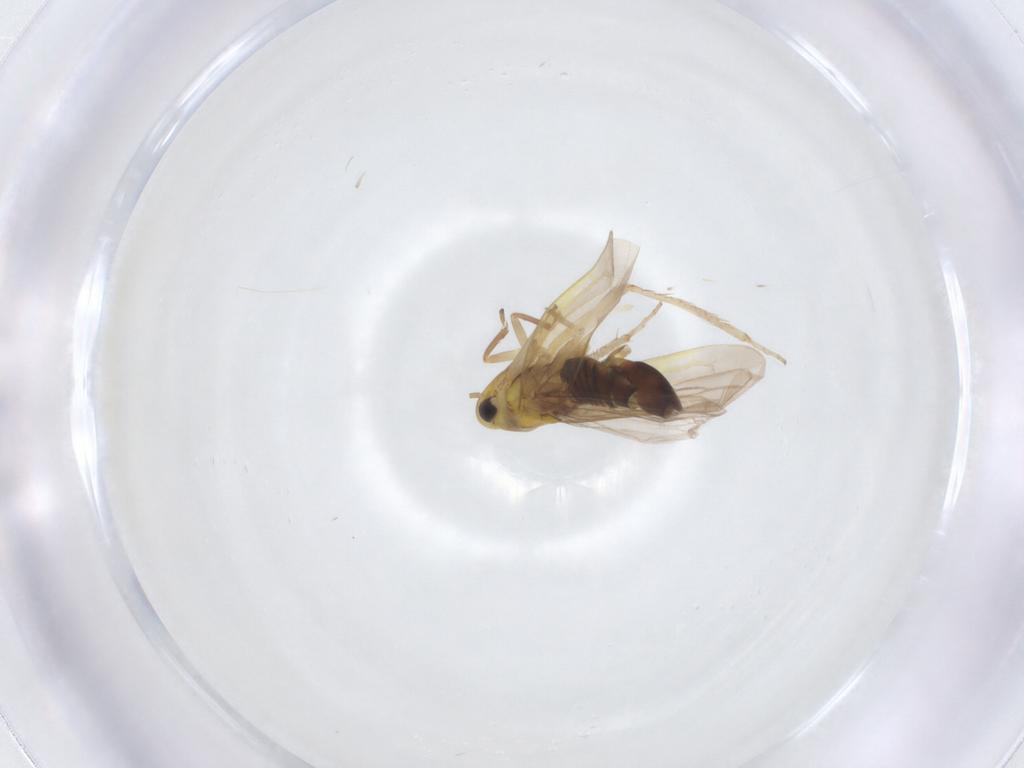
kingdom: Animalia
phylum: Arthropoda
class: Insecta
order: Hemiptera
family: Cicadellidae
